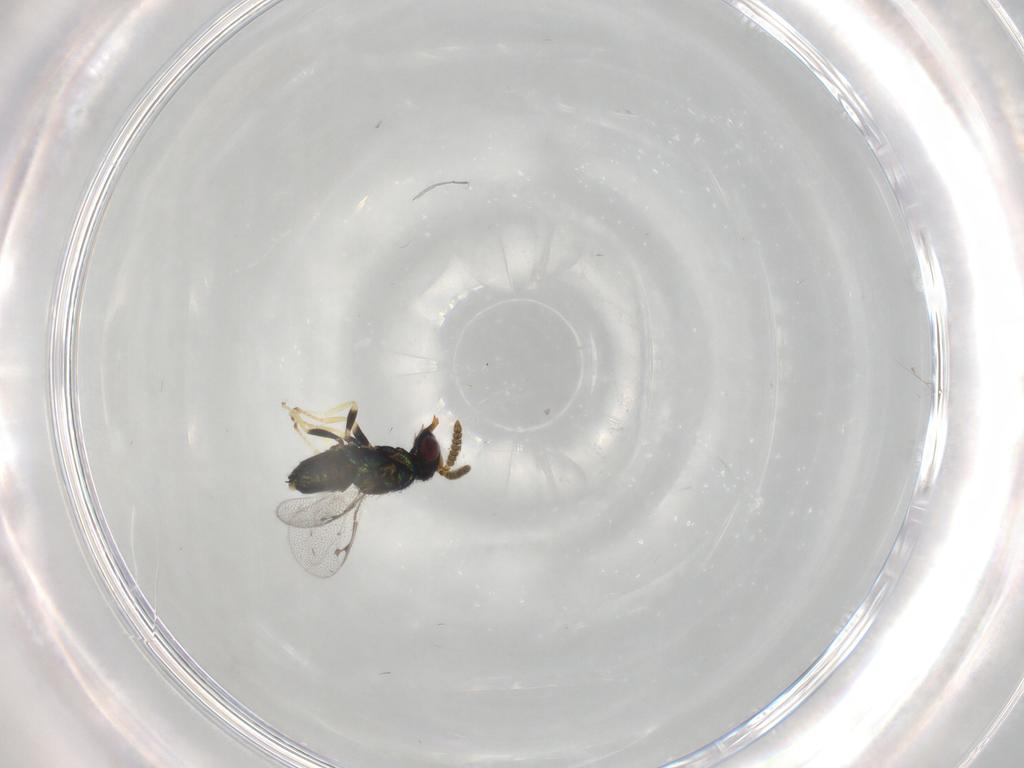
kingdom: Animalia
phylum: Arthropoda
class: Insecta
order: Hymenoptera
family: Pirenidae
